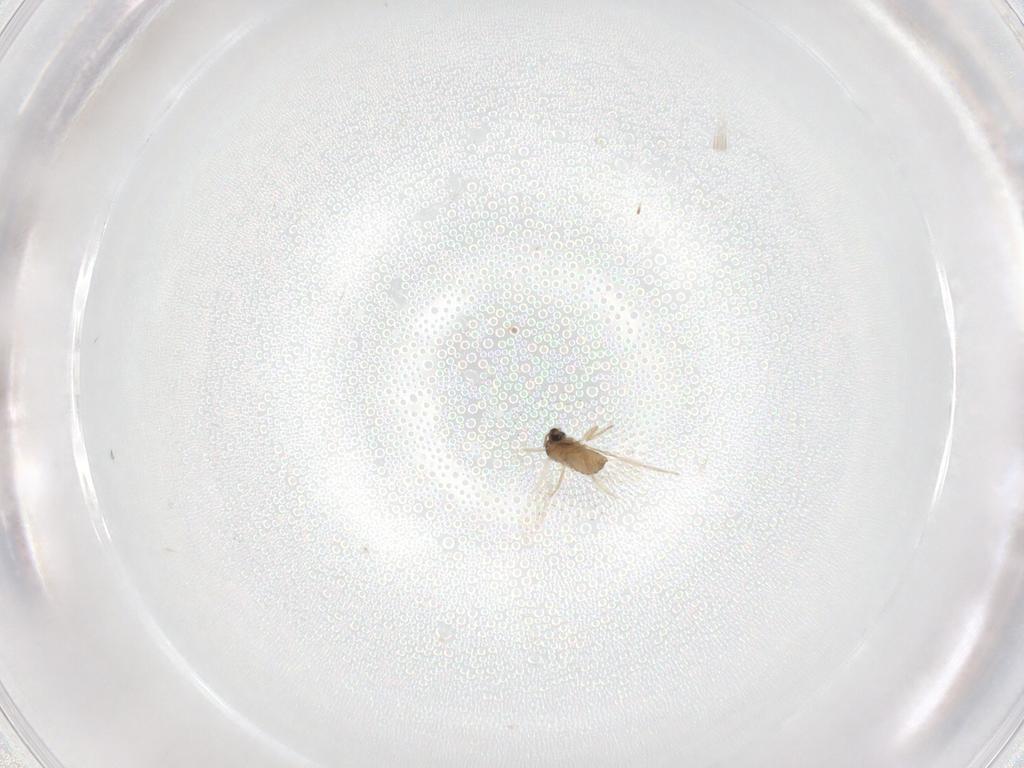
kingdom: Animalia
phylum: Arthropoda
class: Insecta
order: Diptera
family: Ceratopogonidae
